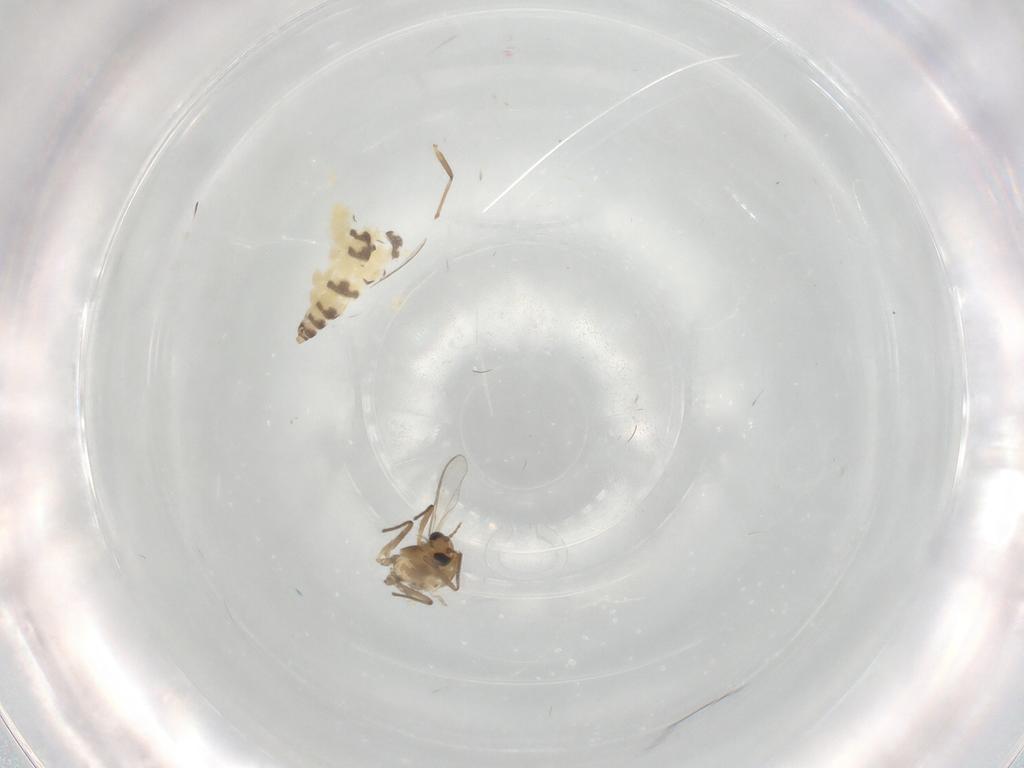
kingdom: Animalia
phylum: Arthropoda
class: Insecta
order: Diptera
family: Chironomidae
